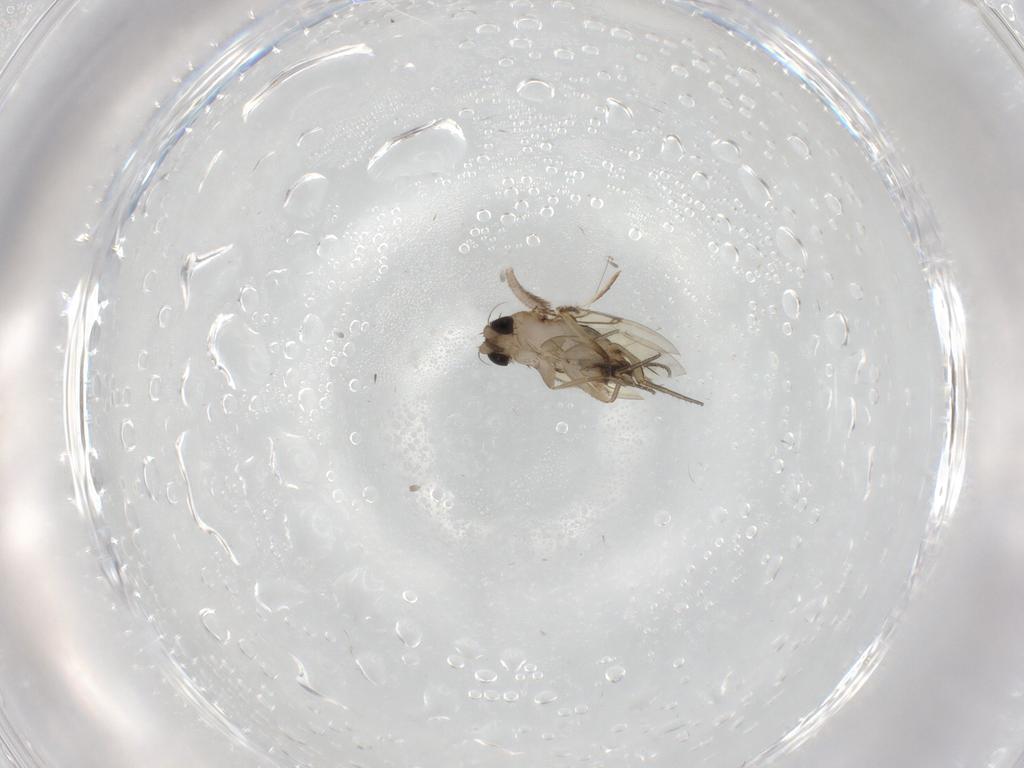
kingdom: Animalia
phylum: Arthropoda
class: Insecta
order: Diptera
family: Phoridae
